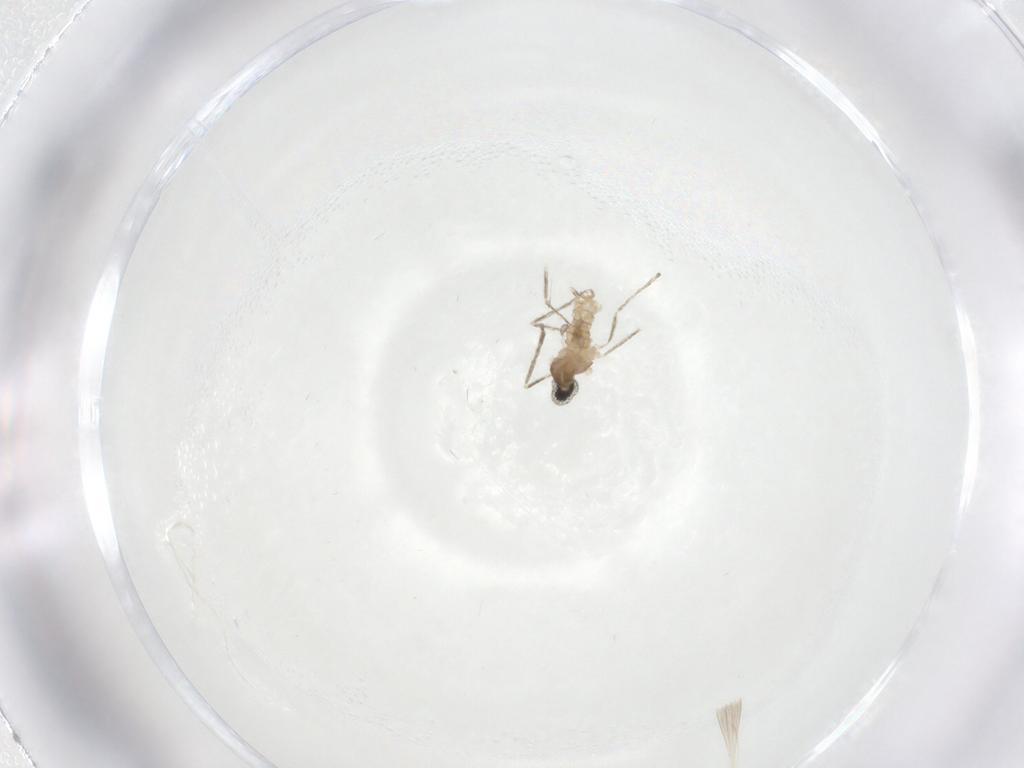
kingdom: Animalia
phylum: Arthropoda
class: Insecta
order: Diptera
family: Cecidomyiidae
